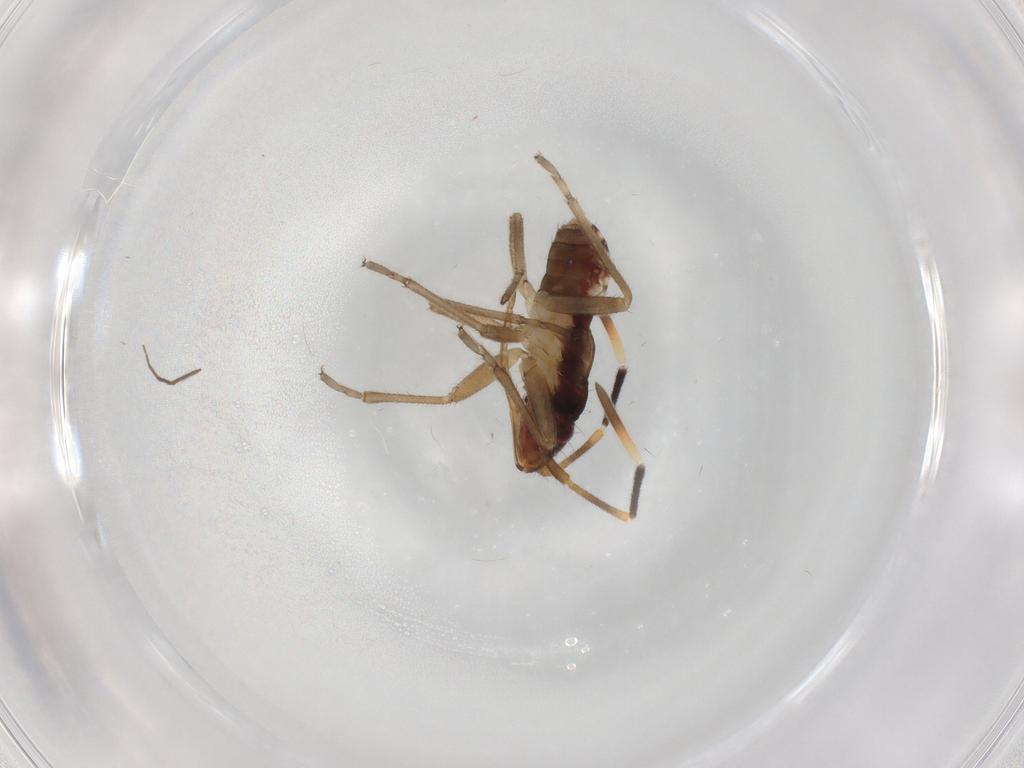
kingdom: Animalia
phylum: Arthropoda
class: Insecta
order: Hemiptera
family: Rhyparochromidae
